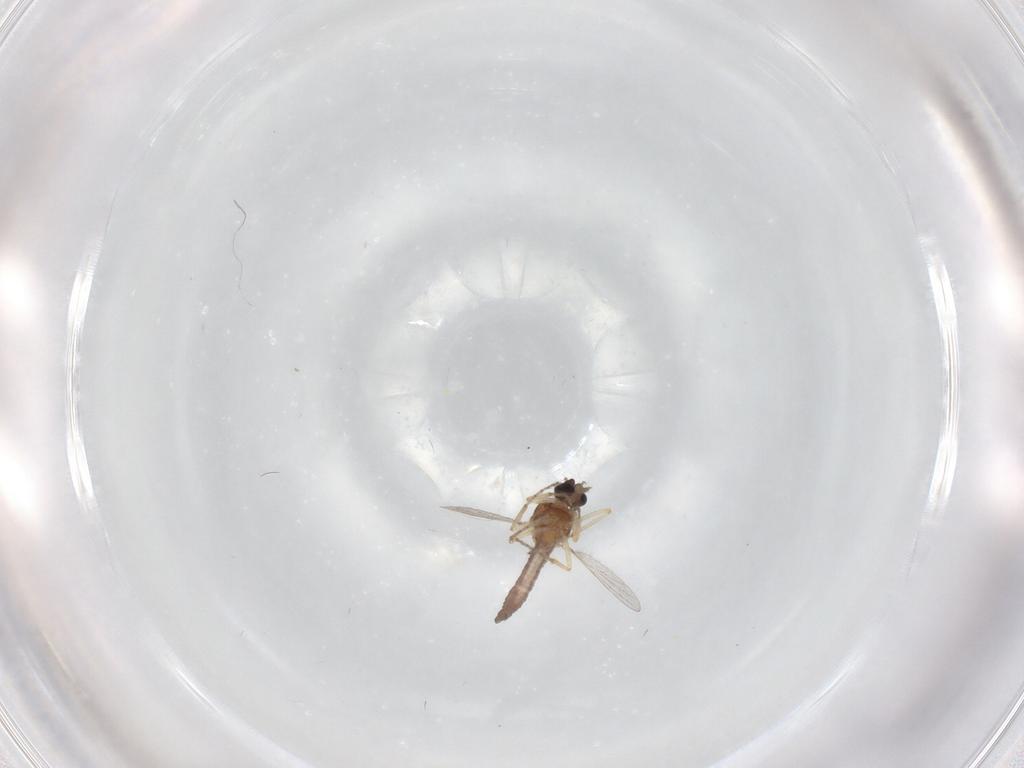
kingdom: Animalia
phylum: Arthropoda
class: Insecta
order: Diptera
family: Ceratopogonidae
